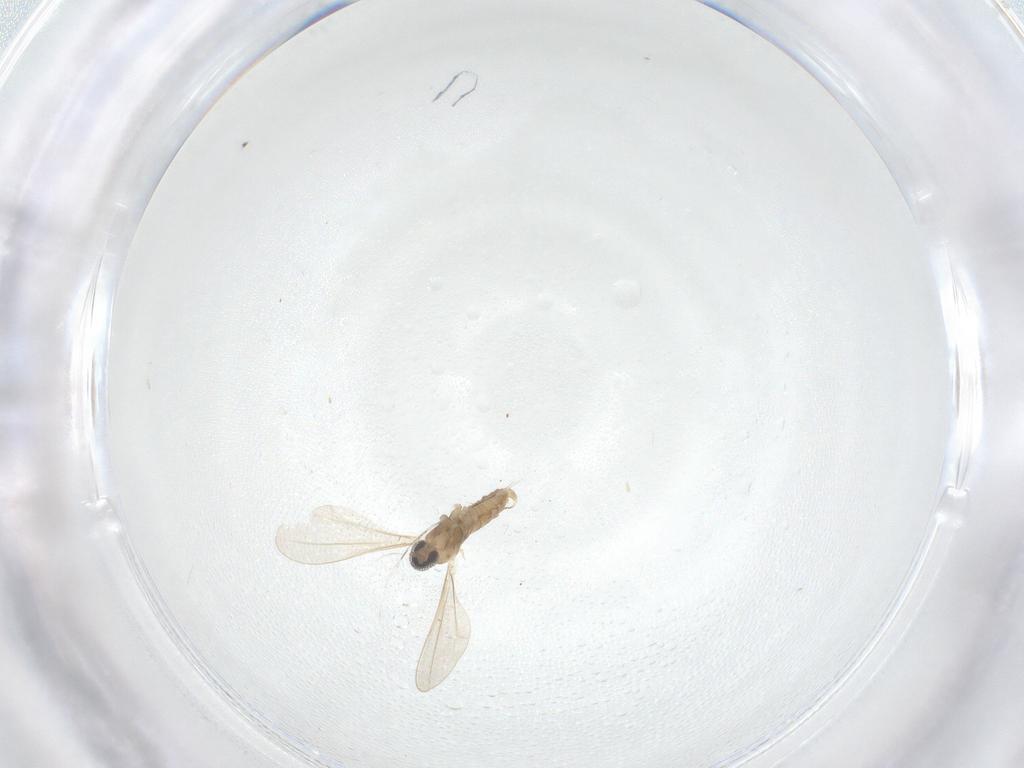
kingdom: Animalia
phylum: Arthropoda
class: Insecta
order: Diptera
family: Cecidomyiidae
